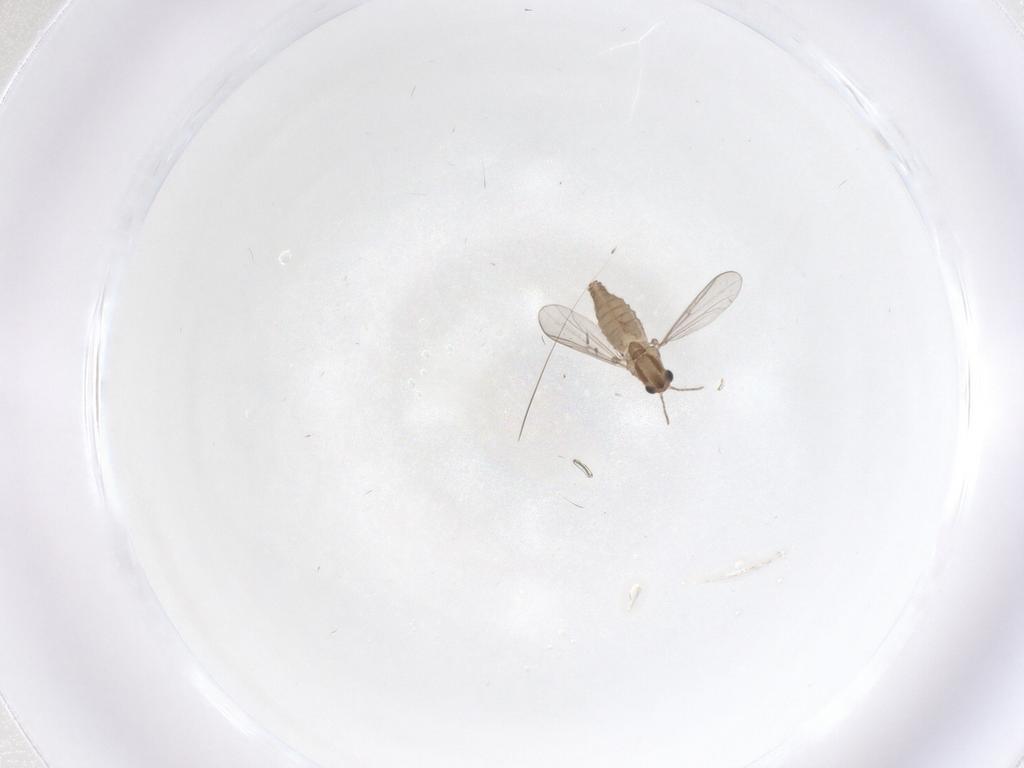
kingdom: Animalia
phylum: Arthropoda
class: Insecta
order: Diptera
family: Chironomidae
